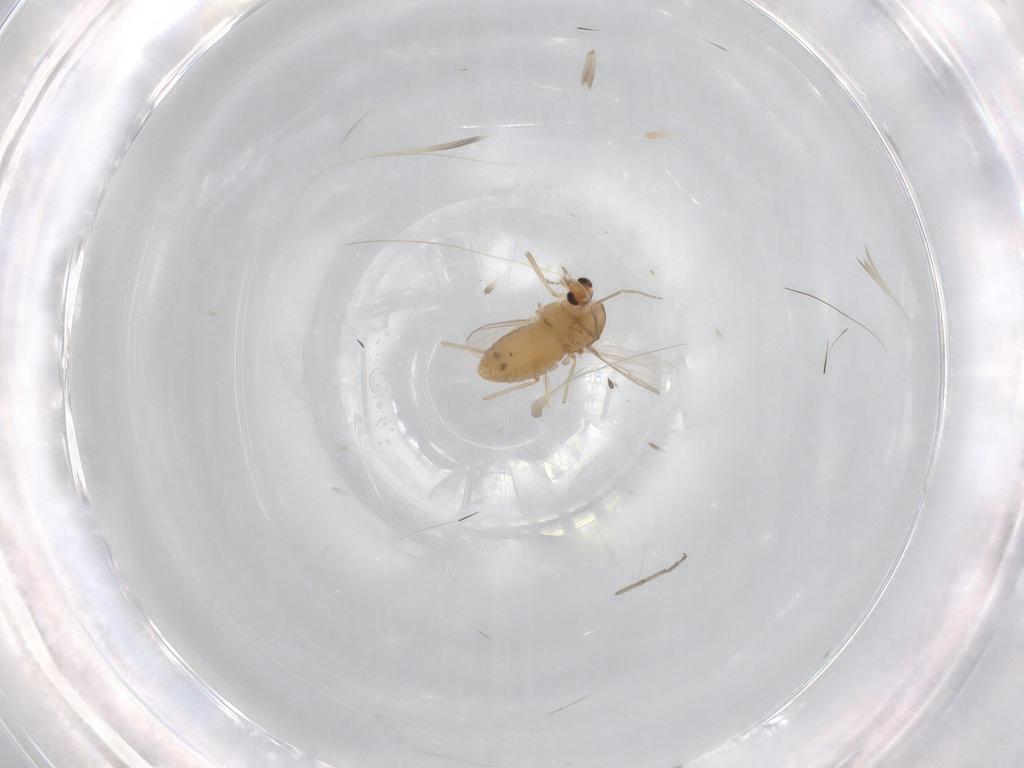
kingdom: Animalia
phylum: Arthropoda
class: Insecta
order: Diptera
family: Chironomidae
